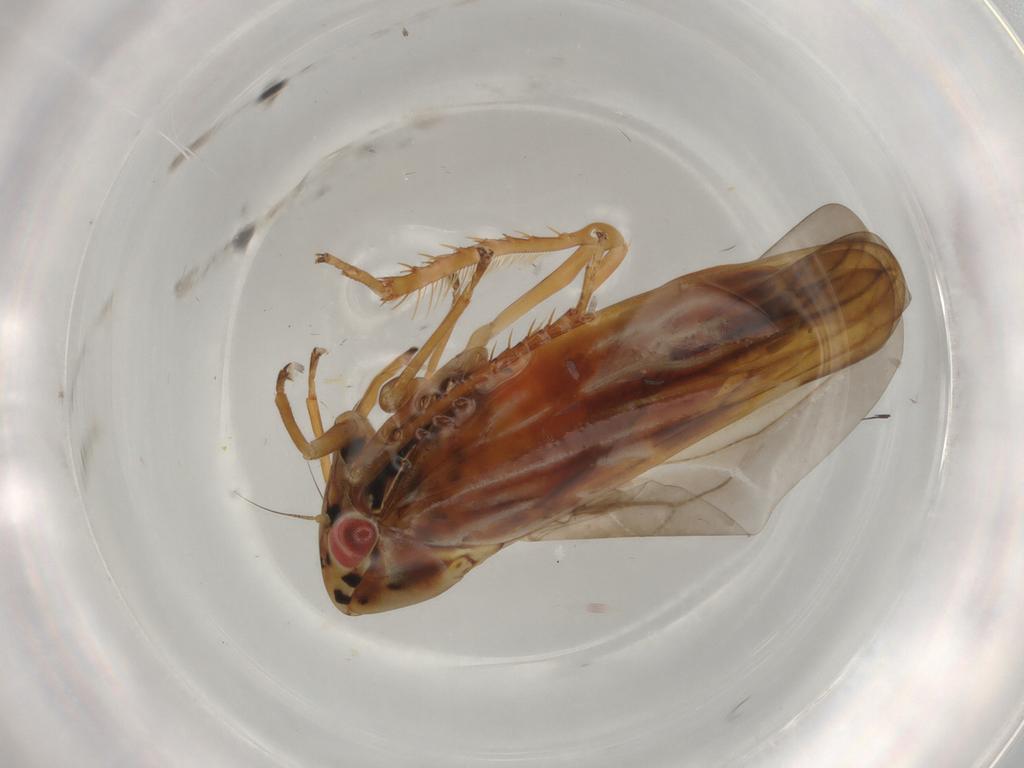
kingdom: Animalia
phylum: Arthropoda
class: Insecta
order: Hemiptera
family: Cicadellidae
